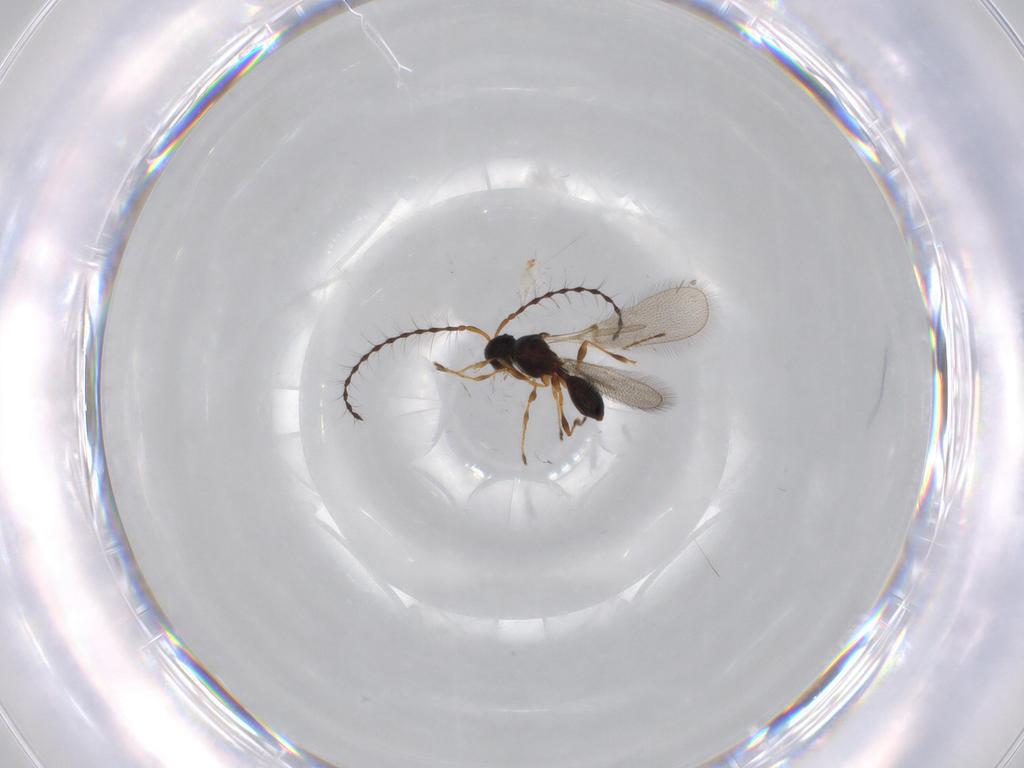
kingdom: Animalia
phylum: Arthropoda
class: Insecta
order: Hymenoptera
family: Diapriidae
